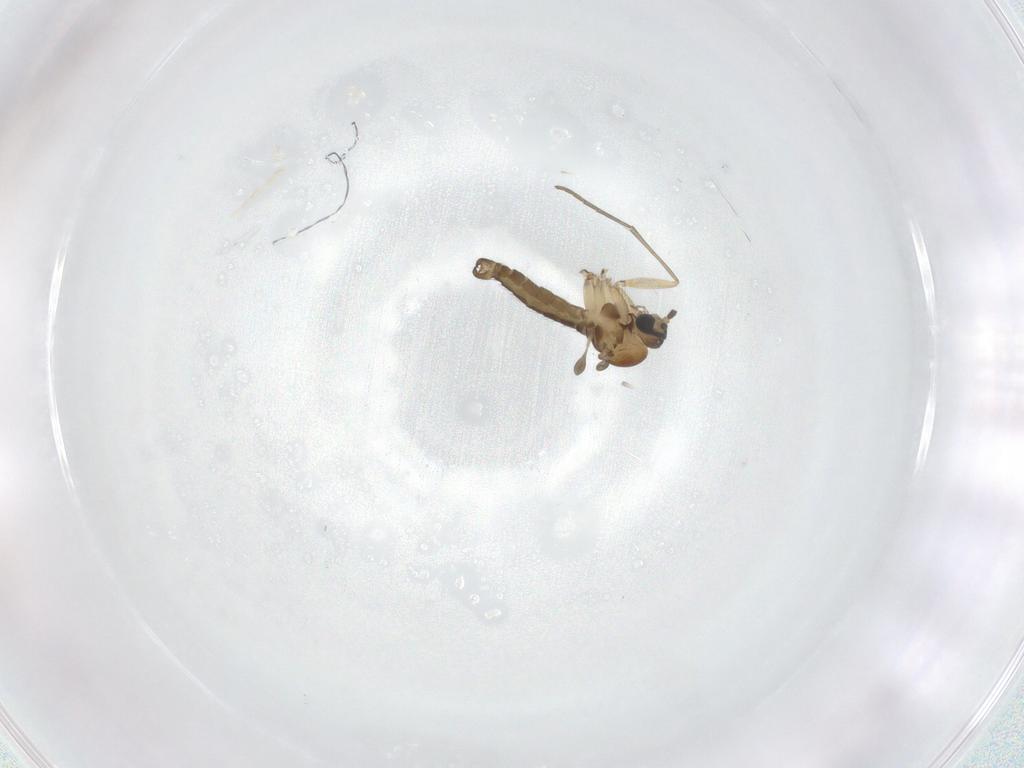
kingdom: Animalia
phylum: Arthropoda
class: Insecta
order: Diptera
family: Sciaridae
